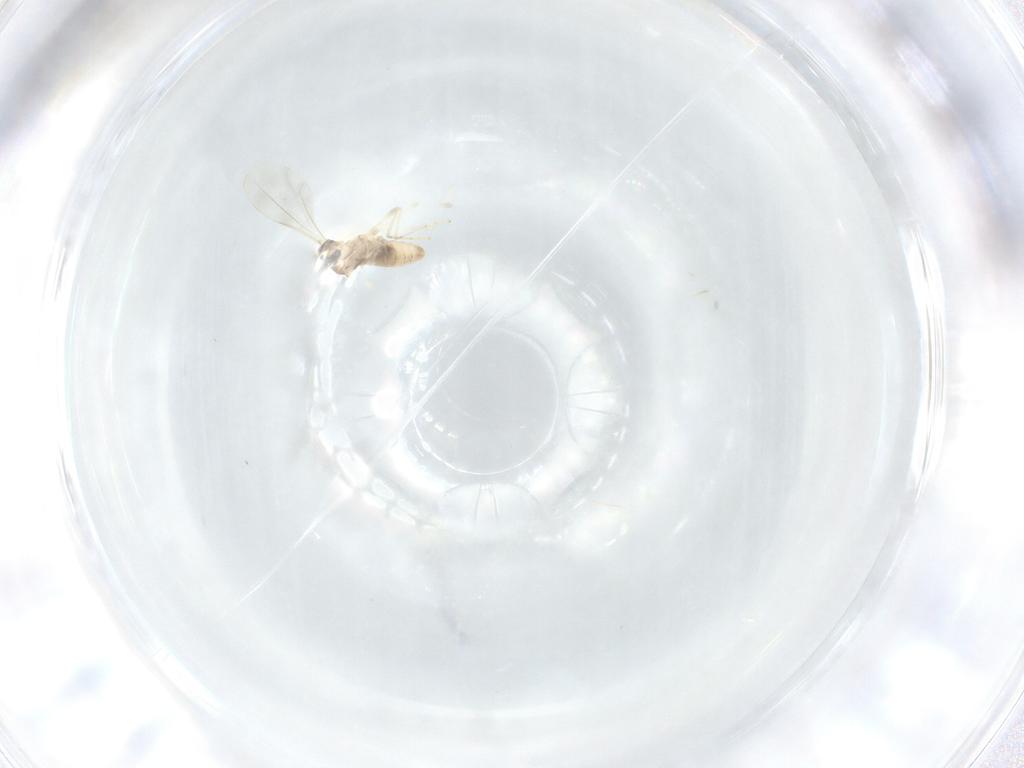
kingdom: Animalia
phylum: Arthropoda
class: Insecta
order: Diptera
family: Cecidomyiidae
